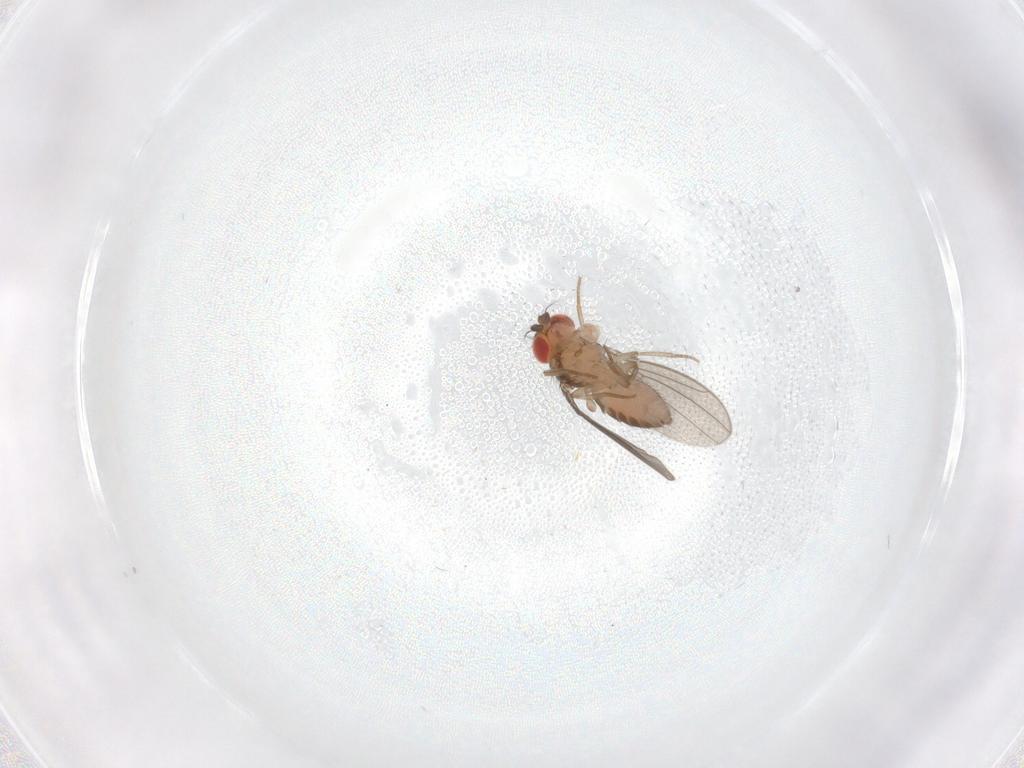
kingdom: Animalia
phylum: Arthropoda
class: Insecta
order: Diptera
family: Drosophilidae
